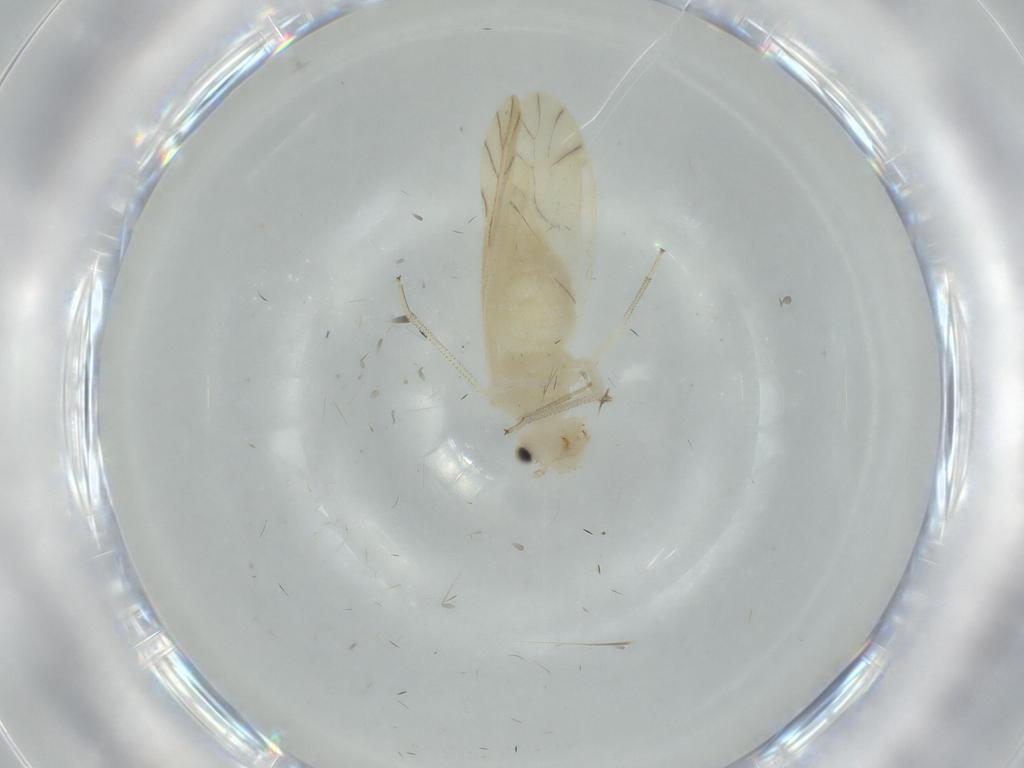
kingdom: Animalia
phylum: Arthropoda
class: Insecta
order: Psocodea
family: Caeciliusidae
